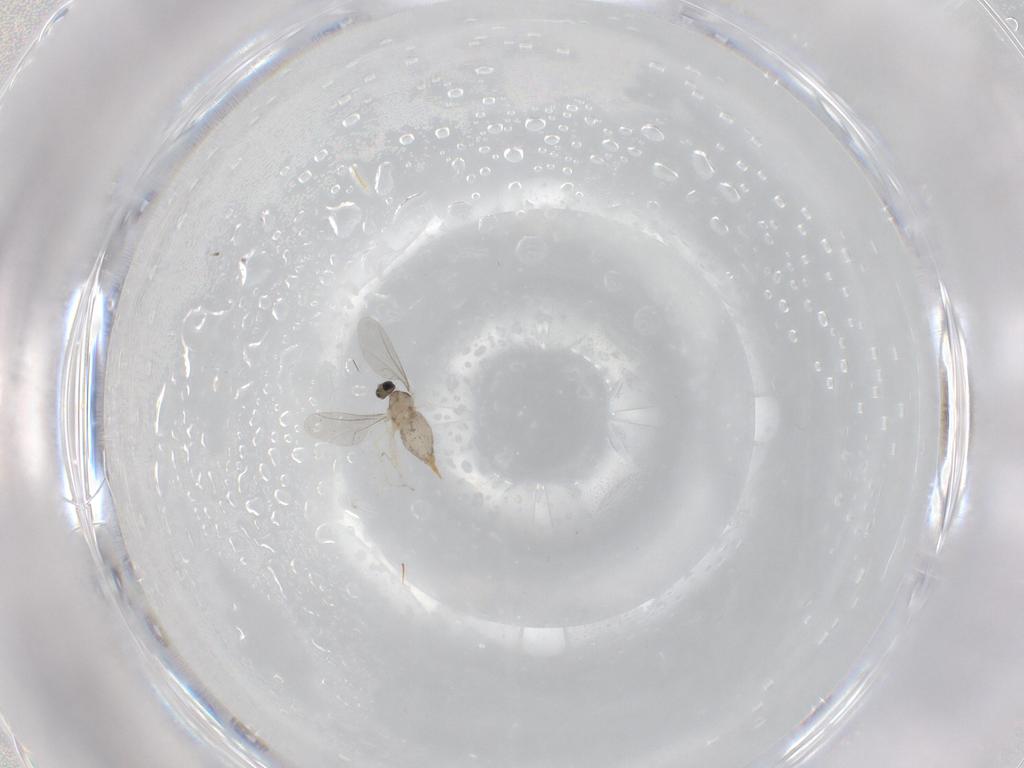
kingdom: Animalia
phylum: Arthropoda
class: Insecta
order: Diptera
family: Cecidomyiidae
